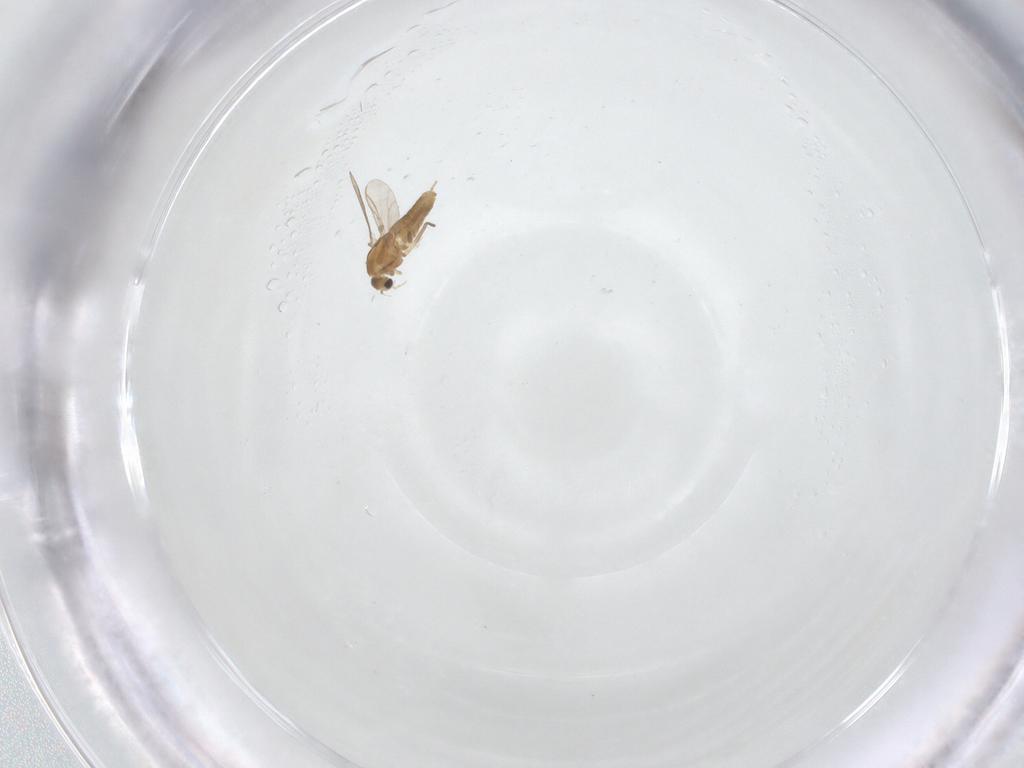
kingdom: Animalia
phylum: Arthropoda
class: Insecta
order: Diptera
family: Chironomidae
